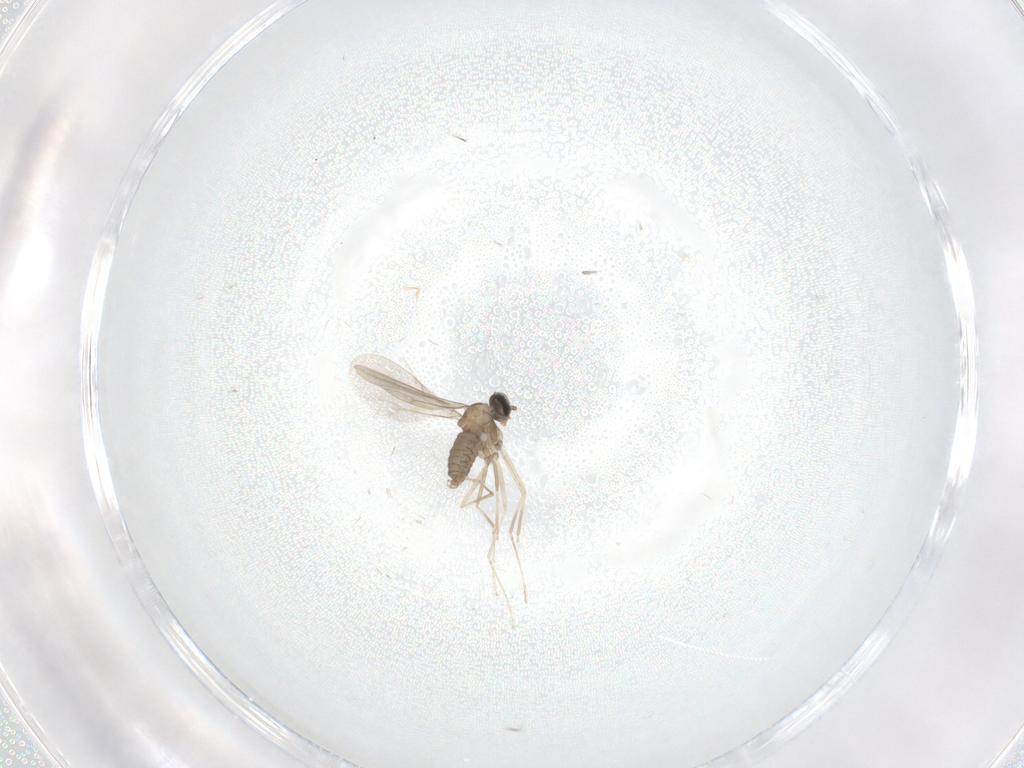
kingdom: Animalia
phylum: Arthropoda
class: Insecta
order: Diptera
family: Cecidomyiidae
